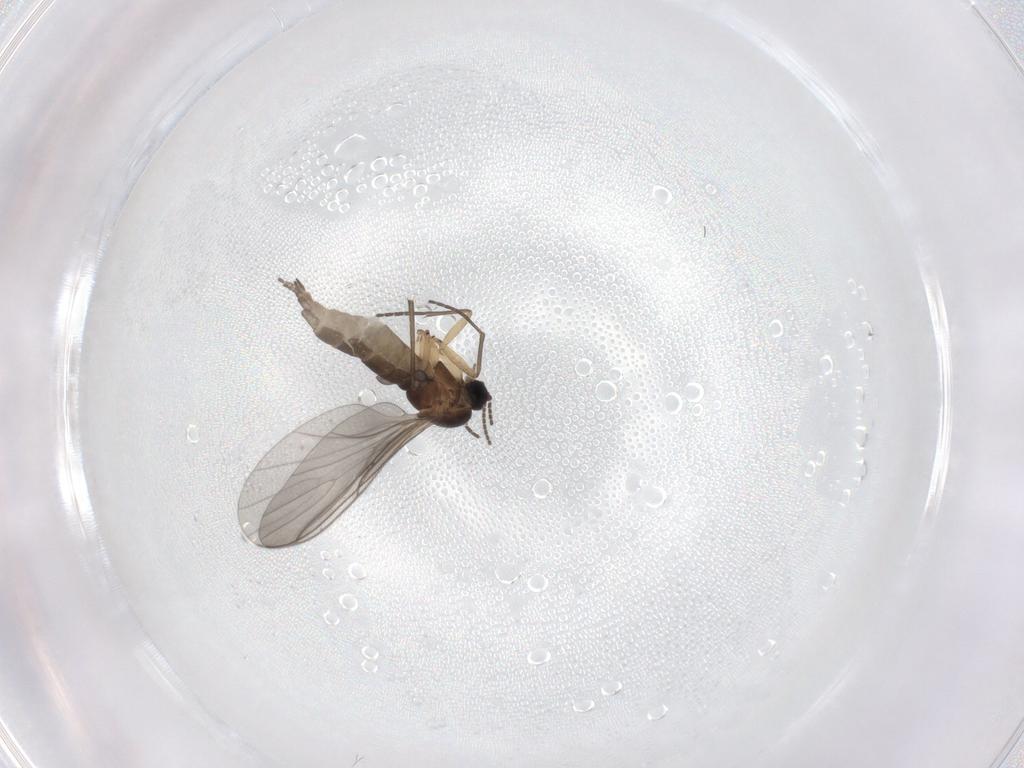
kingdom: Animalia
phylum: Arthropoda
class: Insecta
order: Diptera
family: Sciaridae
